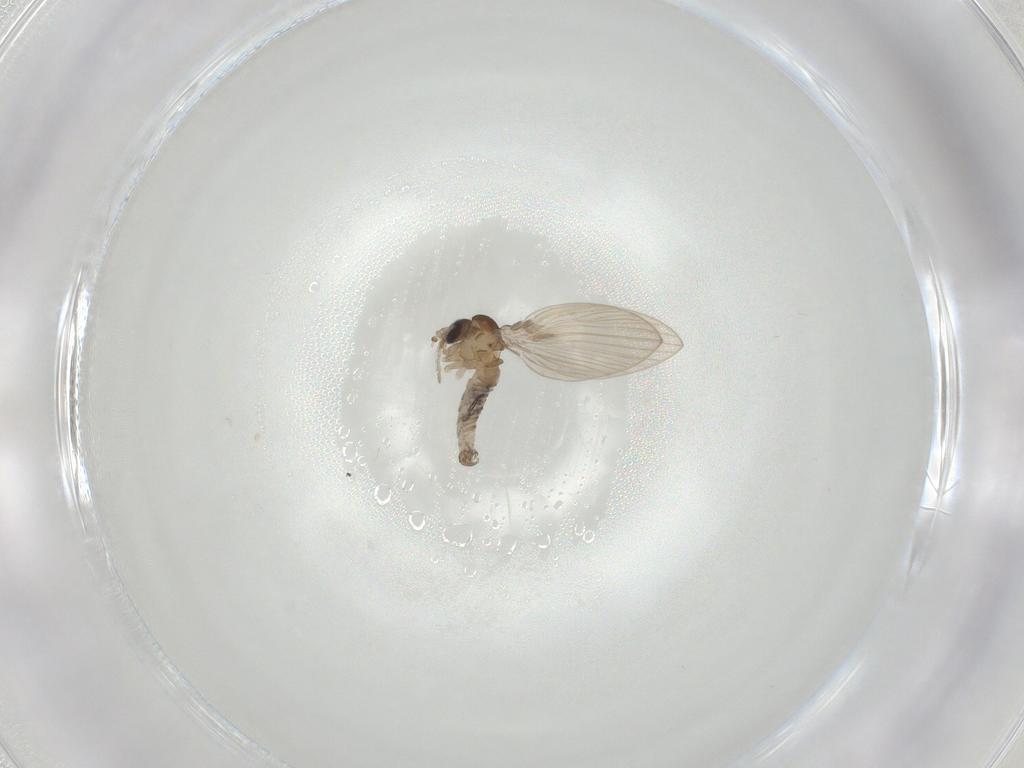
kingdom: Animalia
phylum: Arthropoda
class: Insecta
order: Diptera
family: Psychodidae
